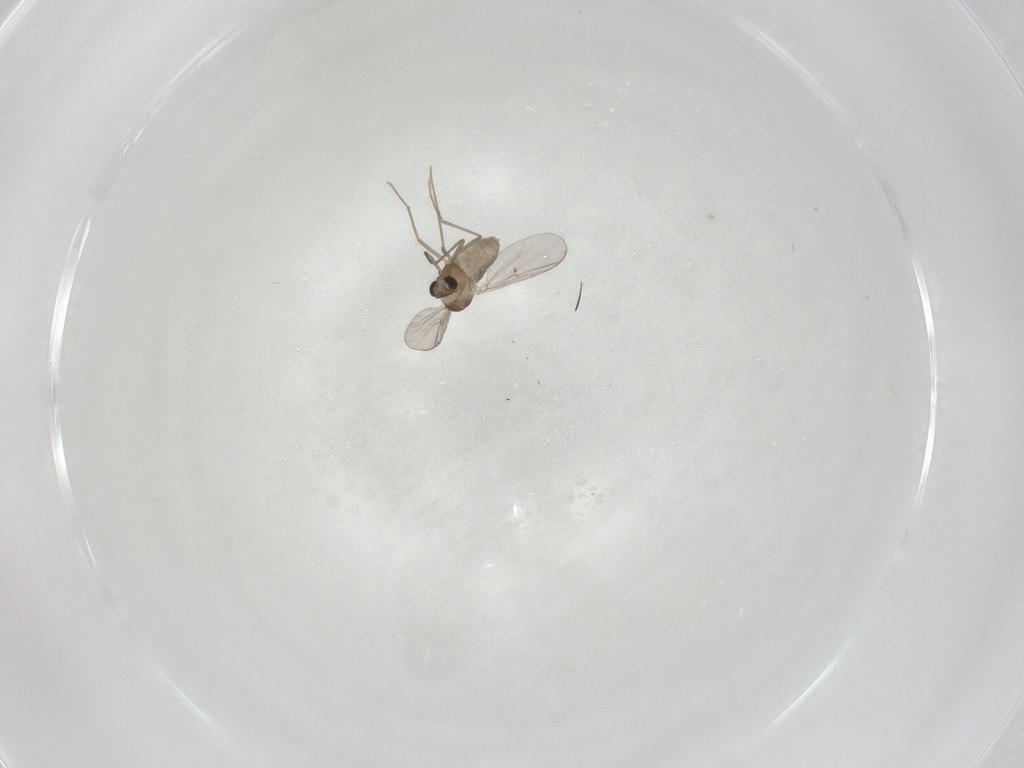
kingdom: Animalia
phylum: Arthropoda
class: Insecta
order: Diptera
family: Chironomidae
